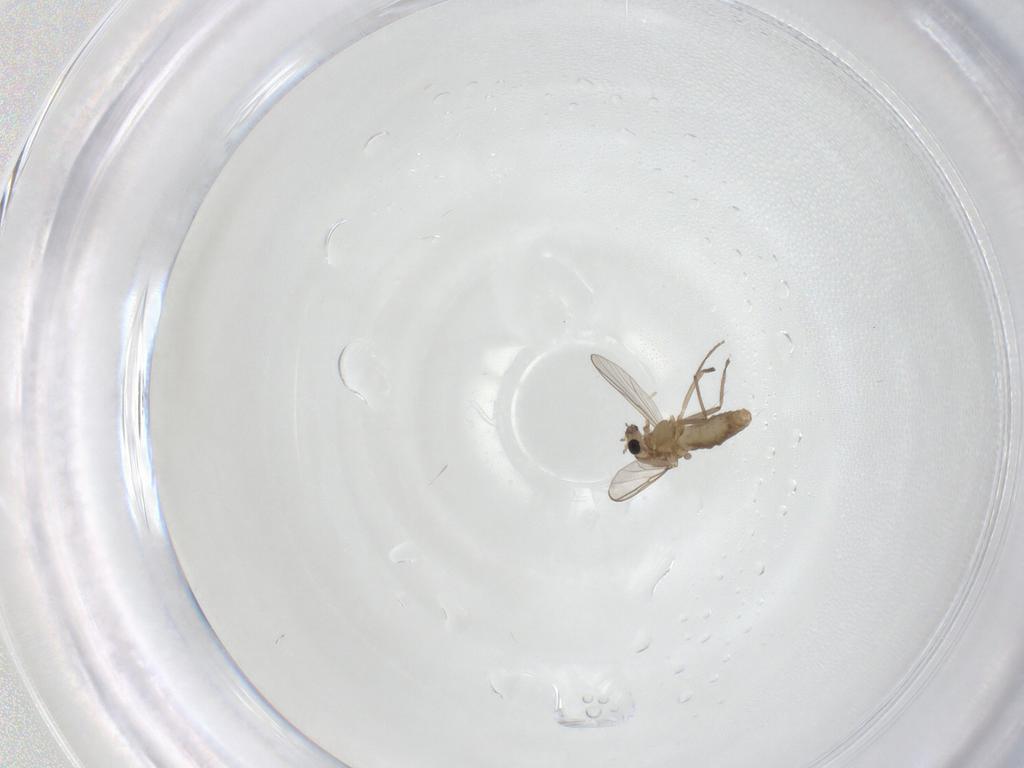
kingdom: Animalia
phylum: Arthropoda
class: Insecta
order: Diptera
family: Chironomidae
